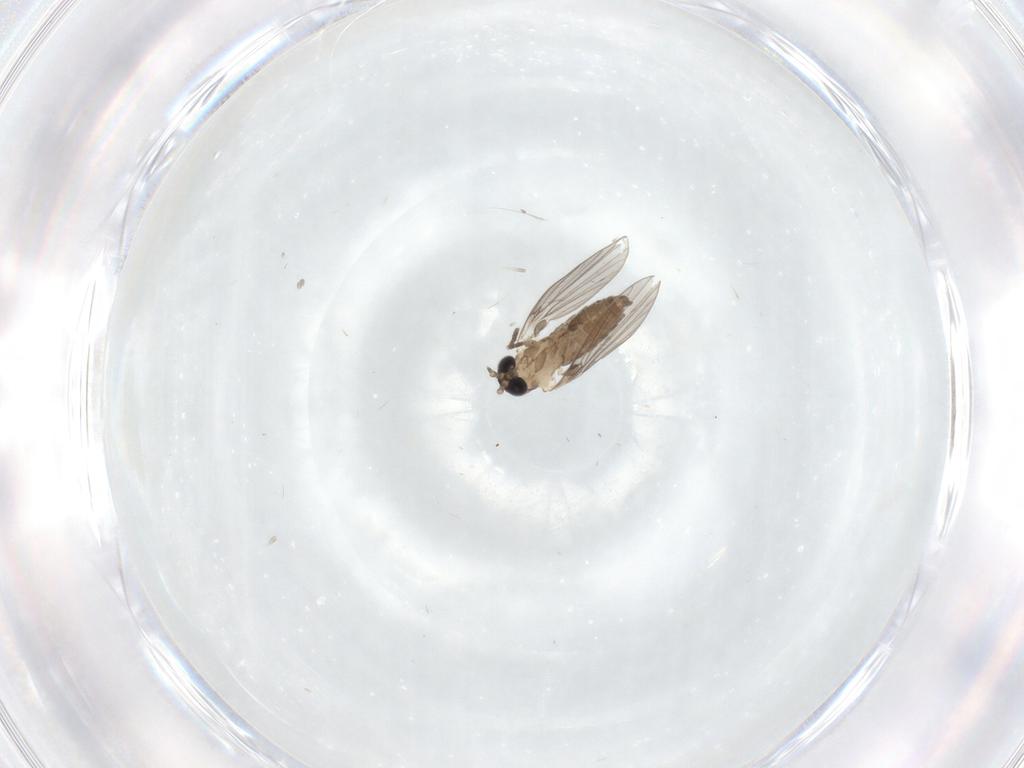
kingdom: Animalia
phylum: Arthropoda
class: Insecta
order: Diptera
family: Psychodidae
